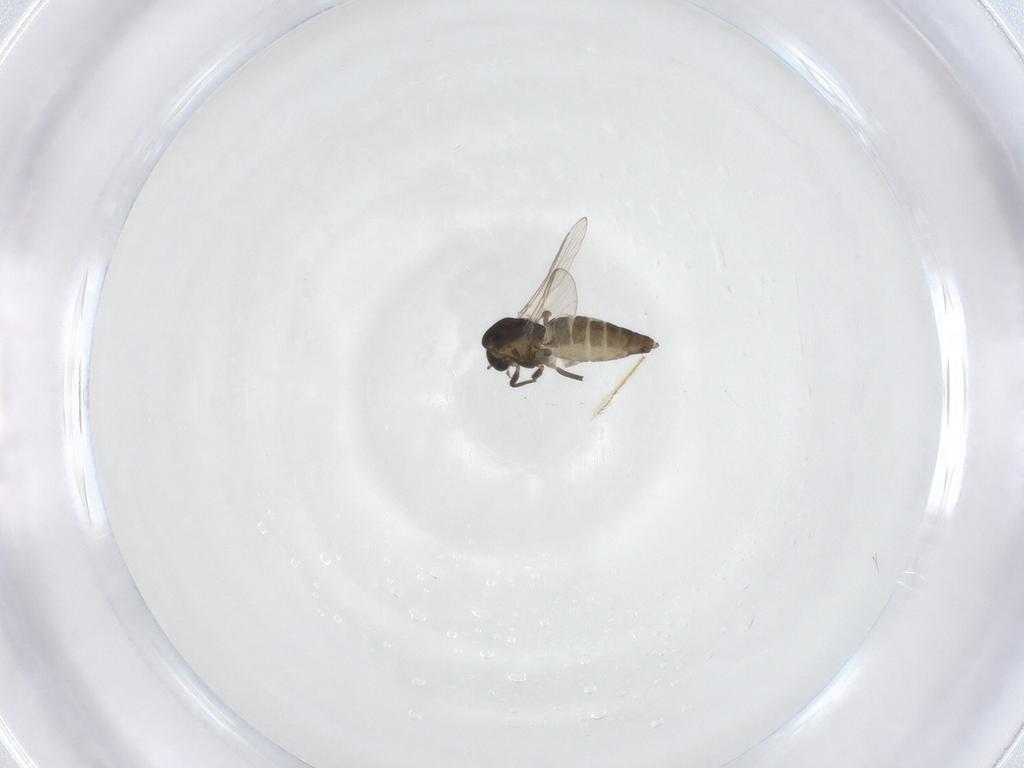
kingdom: Animalia
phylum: Arthropoda
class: Insecta
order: Diptera
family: Chironomidae
